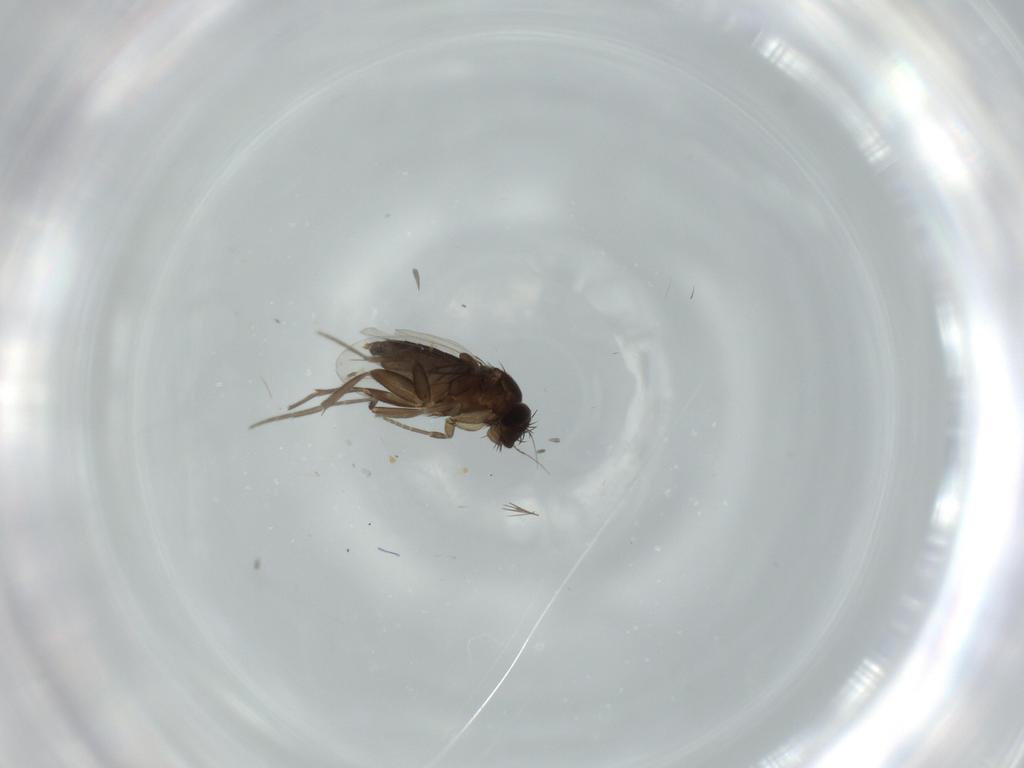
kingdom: Animalia
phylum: Arthropoda
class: Insecta
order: Diptera
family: Phoridae
